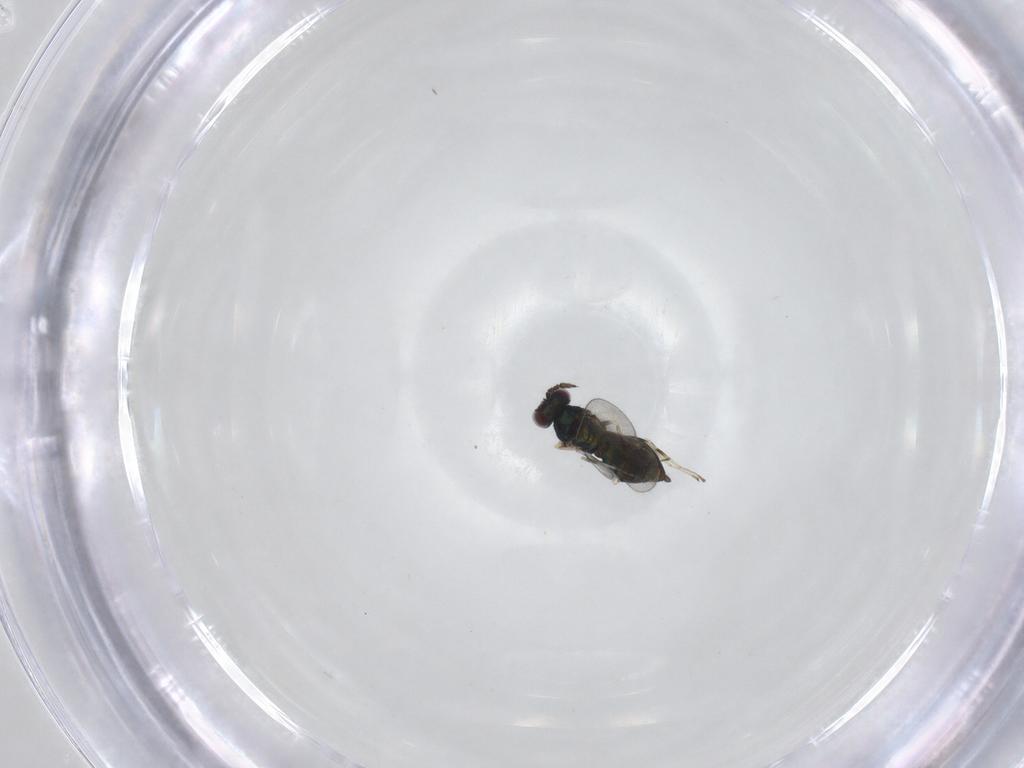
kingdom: Animalia
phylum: Arthropoda
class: Insecta
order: Hymenoptera
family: Eulophidae
